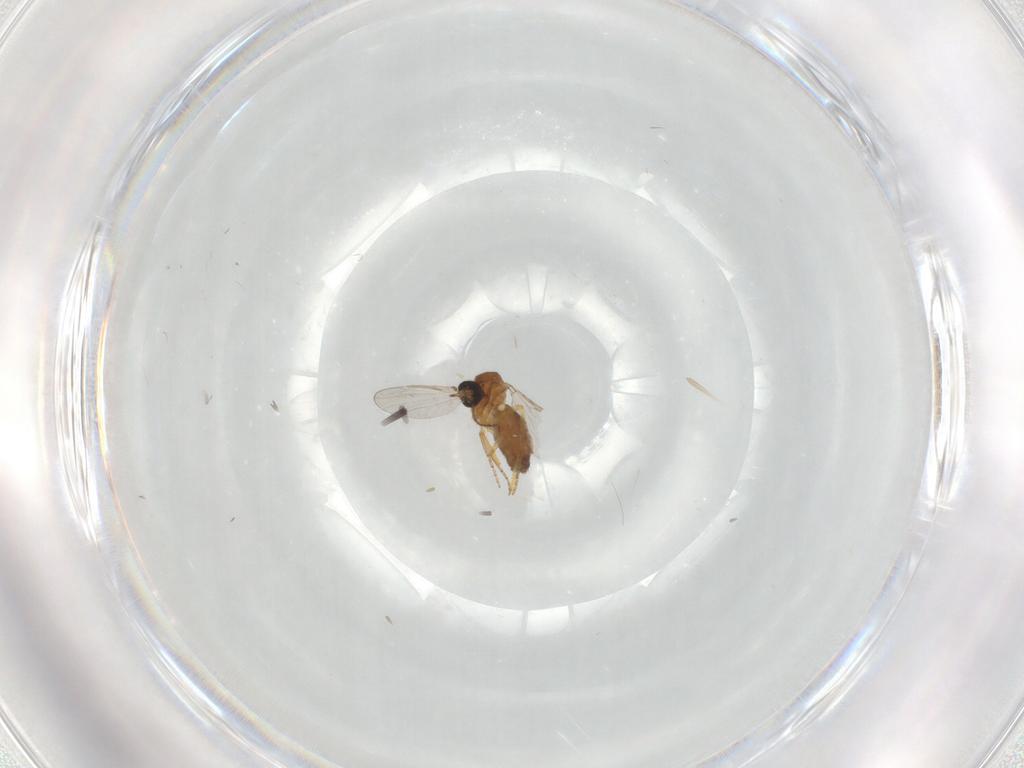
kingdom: Animalia
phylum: Arthropoda
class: Insecta
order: Diptera
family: Ceratopogonidae
